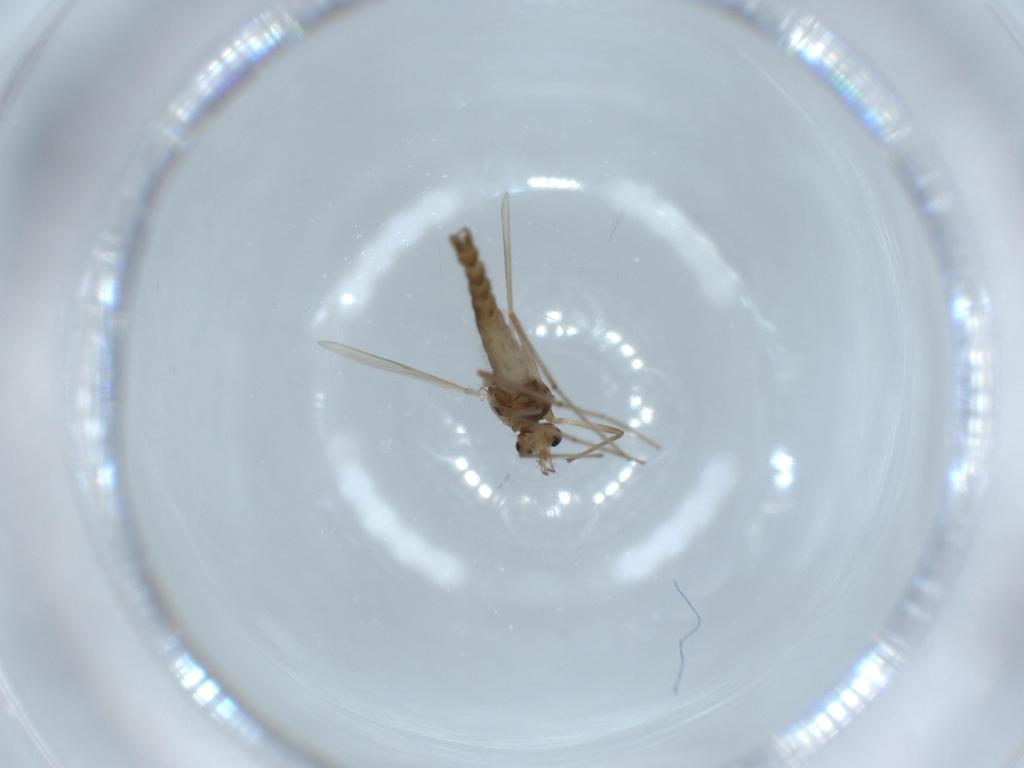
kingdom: Animalia
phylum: Arthropoda
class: Insecta
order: Diptera
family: Chironomidae
